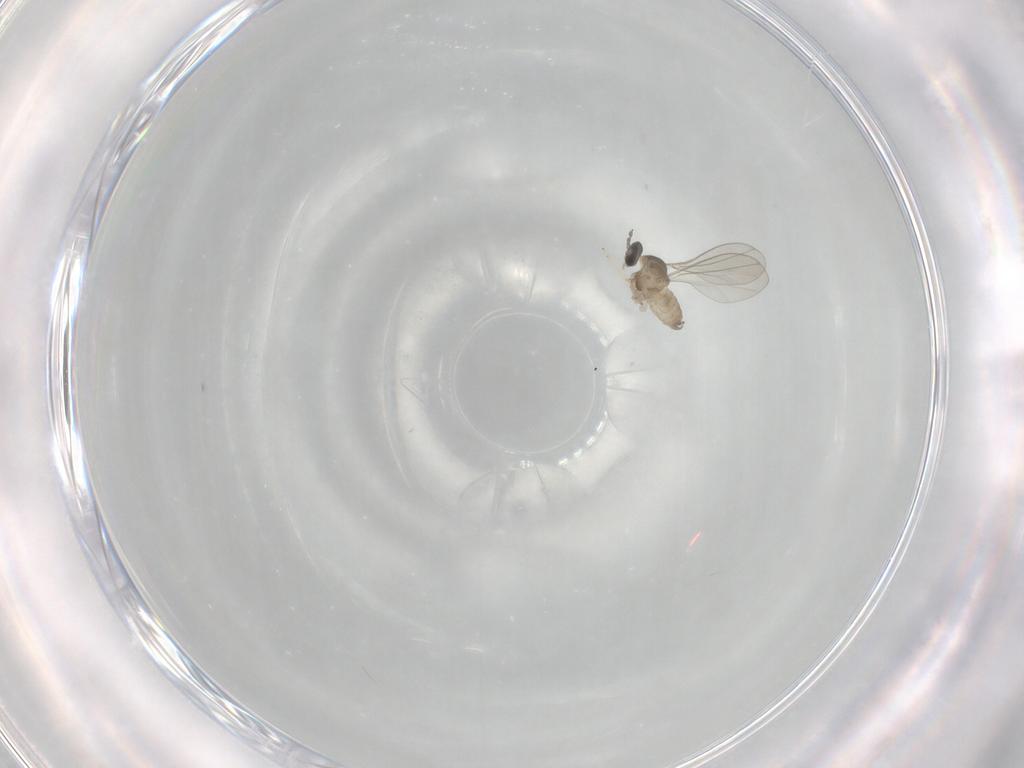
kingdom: Animalia
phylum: Arthropoda
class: Insecta
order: Diptera
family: Cecidomyiidae
